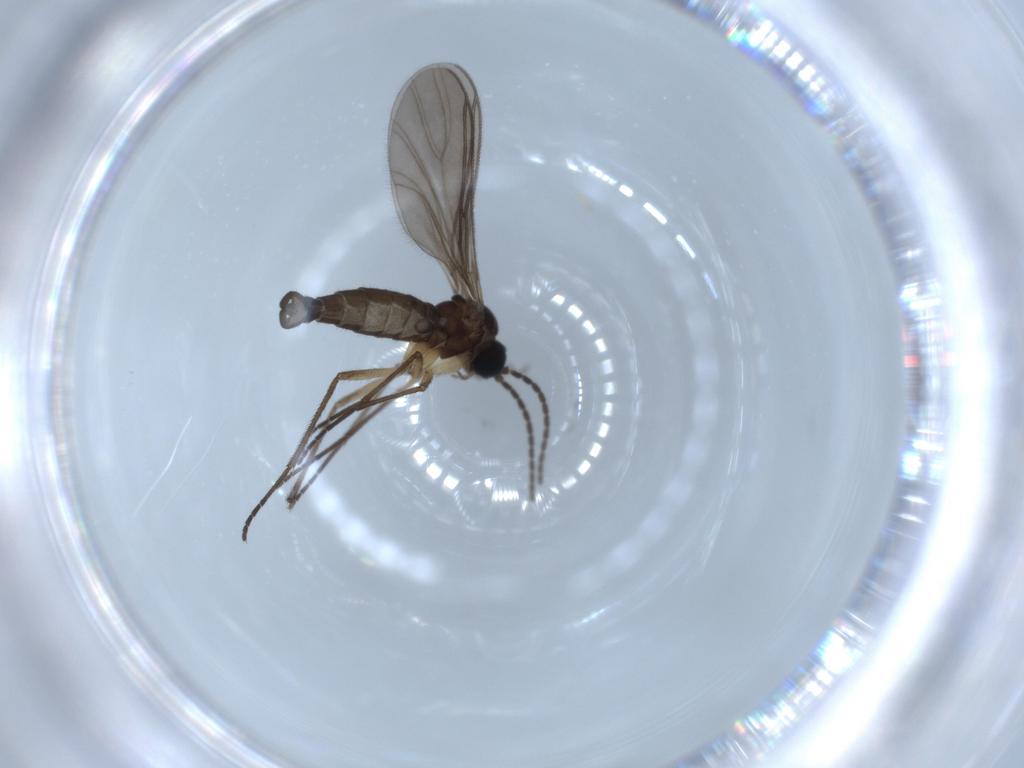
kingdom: Animalia
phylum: Arthropoda
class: Insecta
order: Diptera
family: Sciaridae
